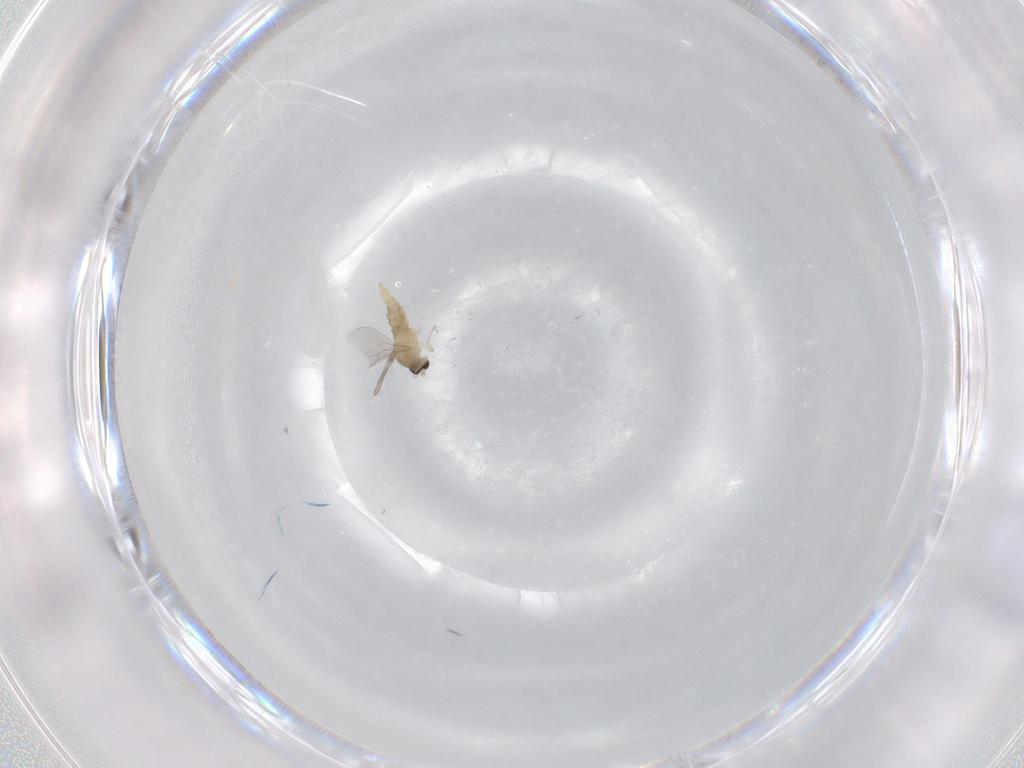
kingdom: Animalia
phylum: Arthropoda
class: Insecta
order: Diptera
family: Cecidomyiidae
